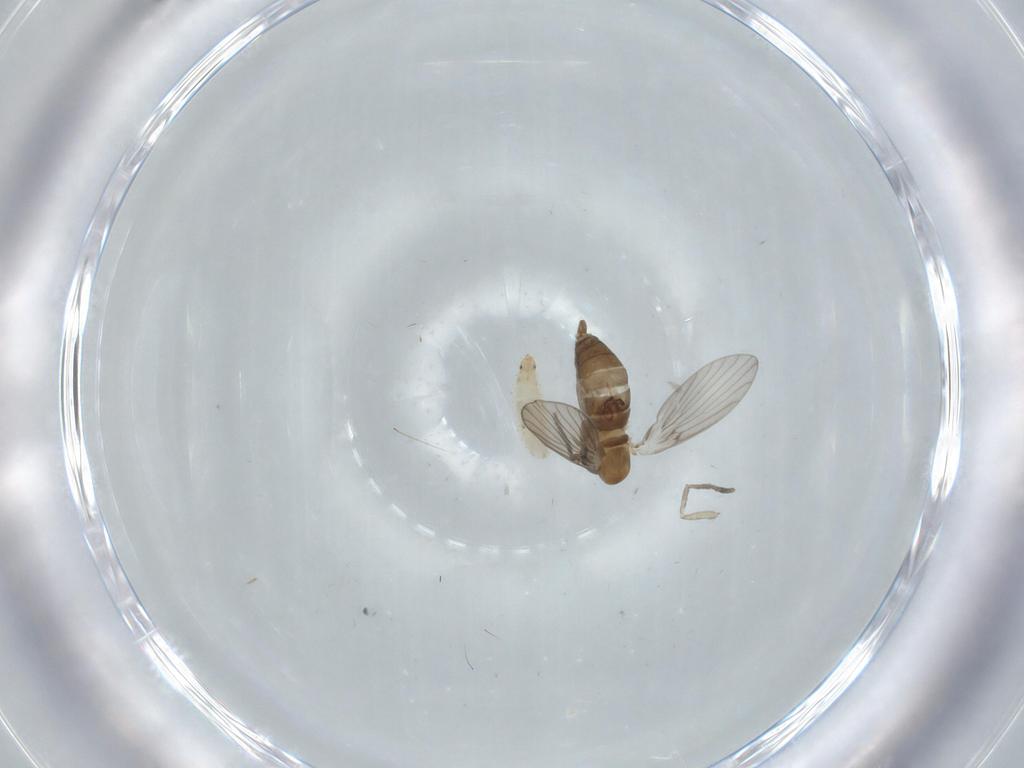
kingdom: Animalia
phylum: Arthropoda
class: Insecta
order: Diptera
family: Psychodidae
